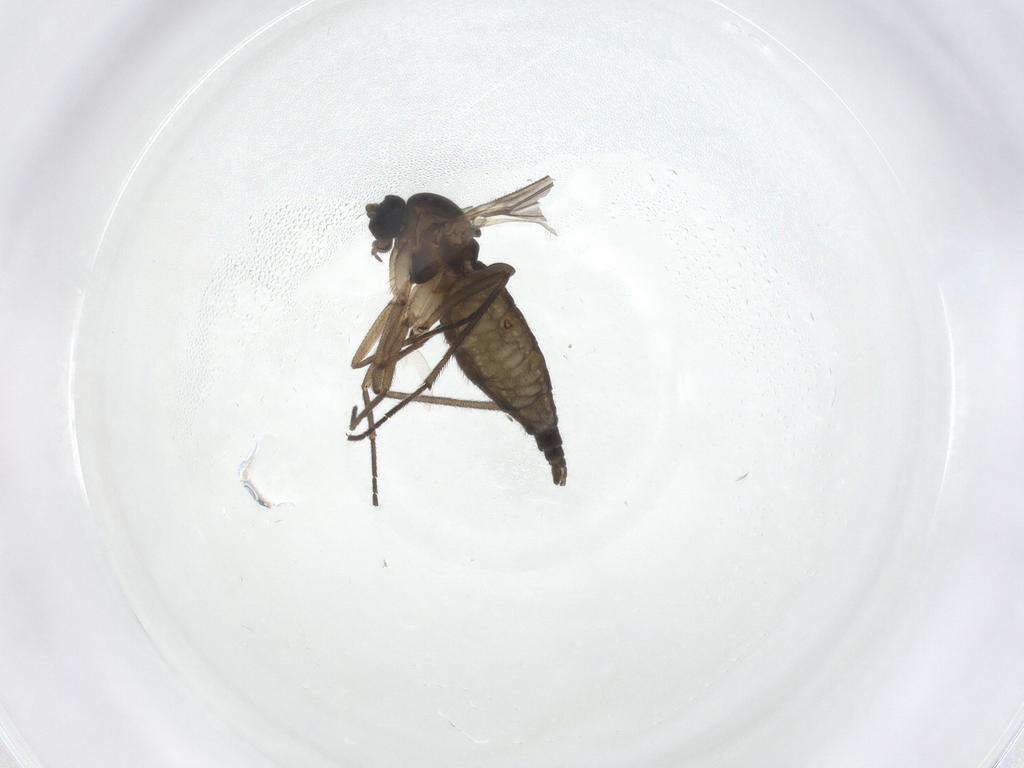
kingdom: Animalia
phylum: Arthropoda
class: Insecta
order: Diptera
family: Sciaridae
